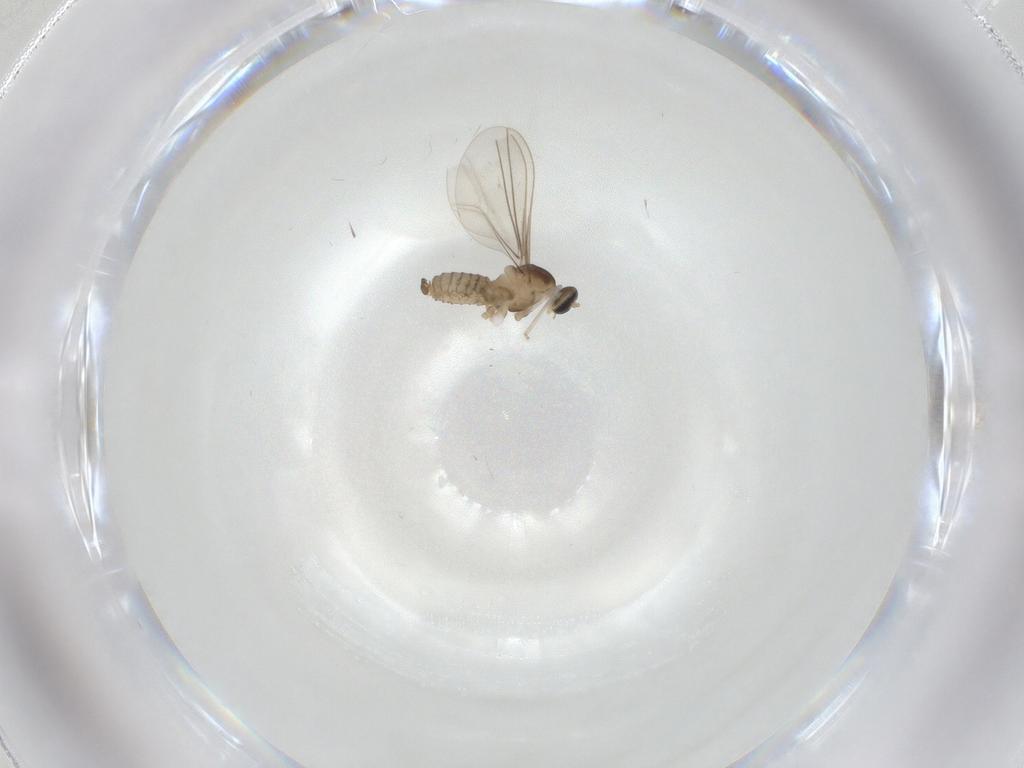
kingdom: Animalia
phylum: Arthropoda
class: Insecta
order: Diptera
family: Cecidomyiidae
